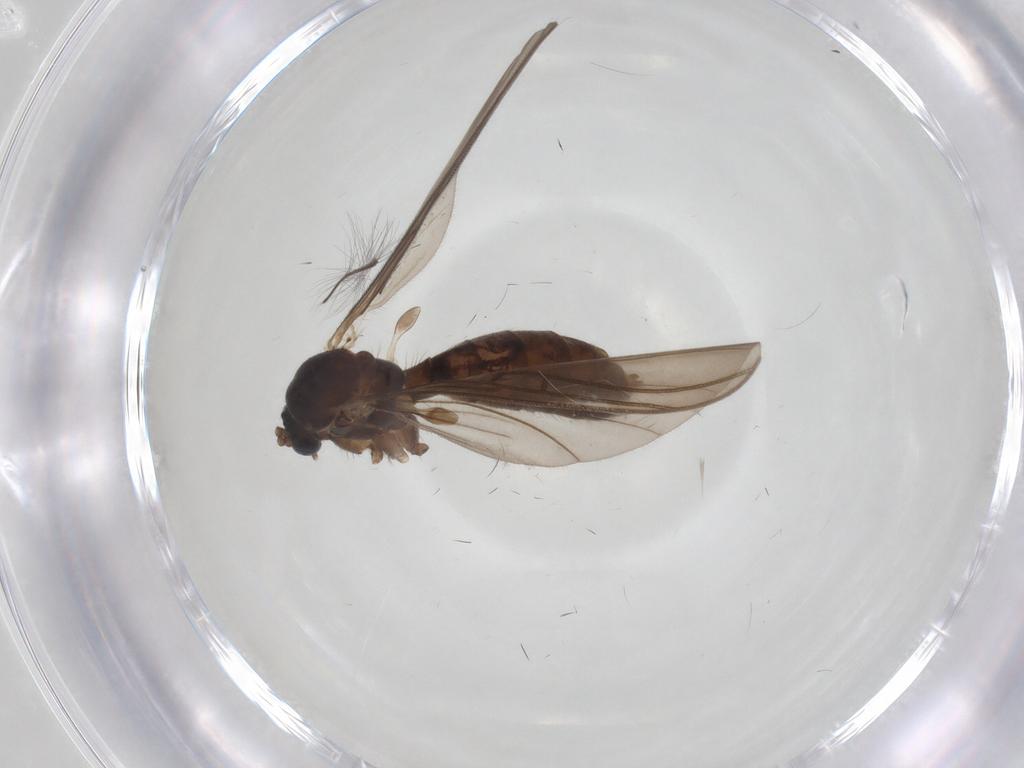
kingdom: Animalia
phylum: Arthropoda
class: Insecta
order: Diptera
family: Mycetophilidae
